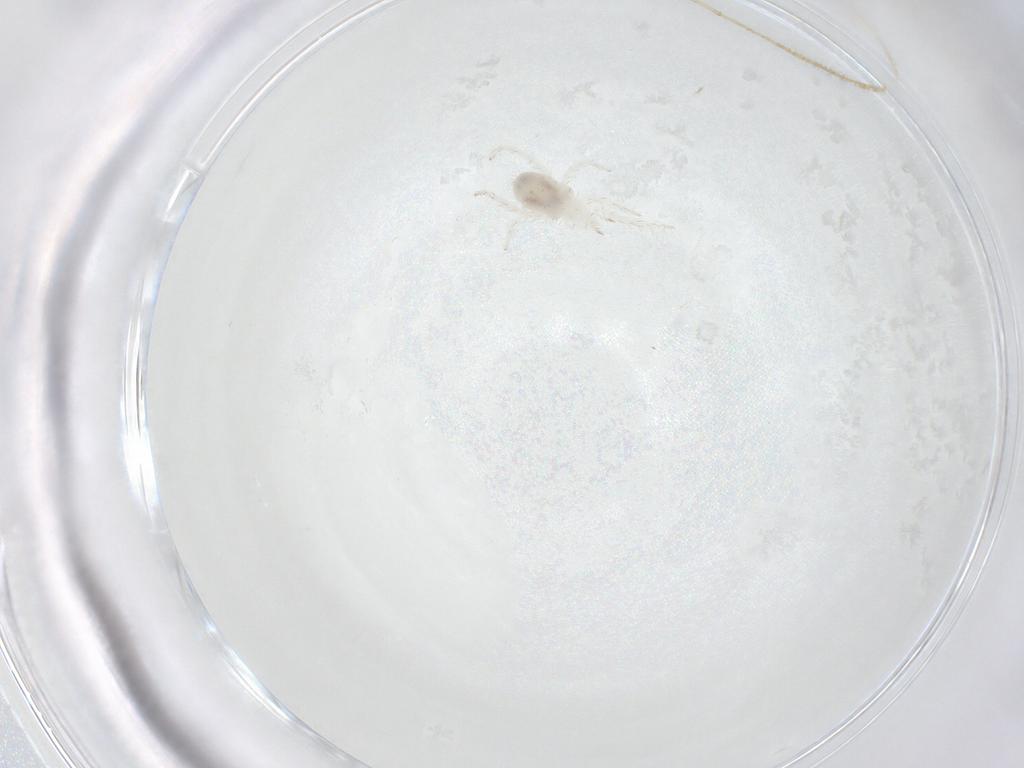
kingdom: Animalia
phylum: Arthropoda
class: Insecta
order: Diptera
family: Psychodidae
